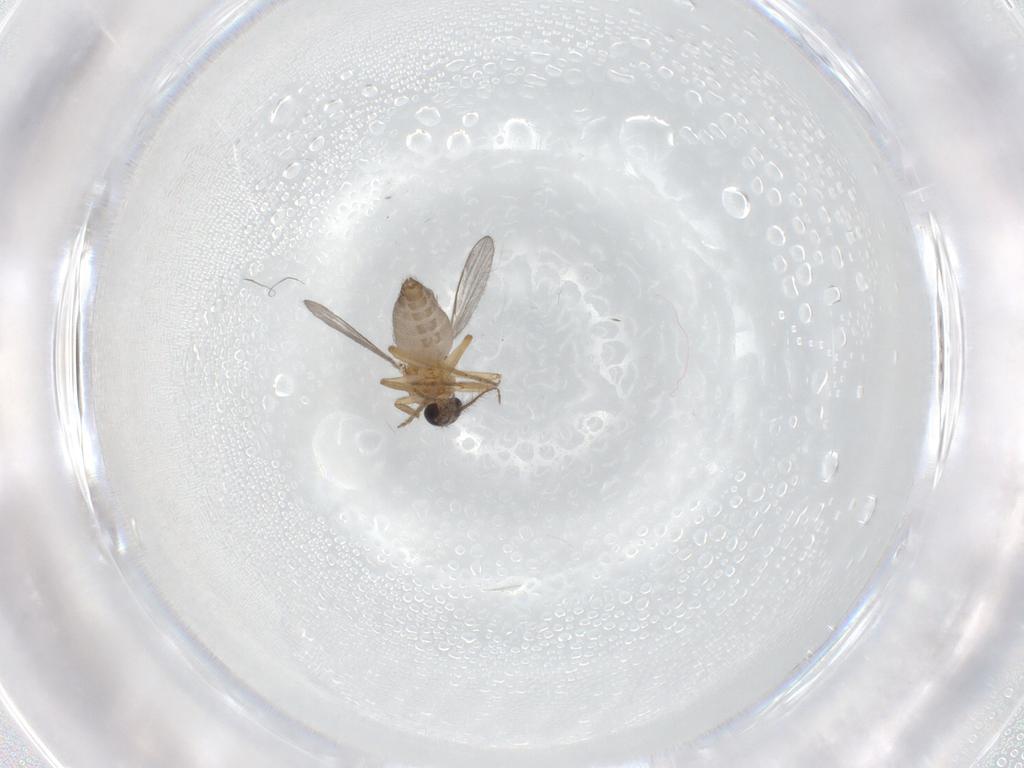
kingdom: Animalia
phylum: Arthropoda
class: Insecta
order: Diptera
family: Ceratopogonidae
